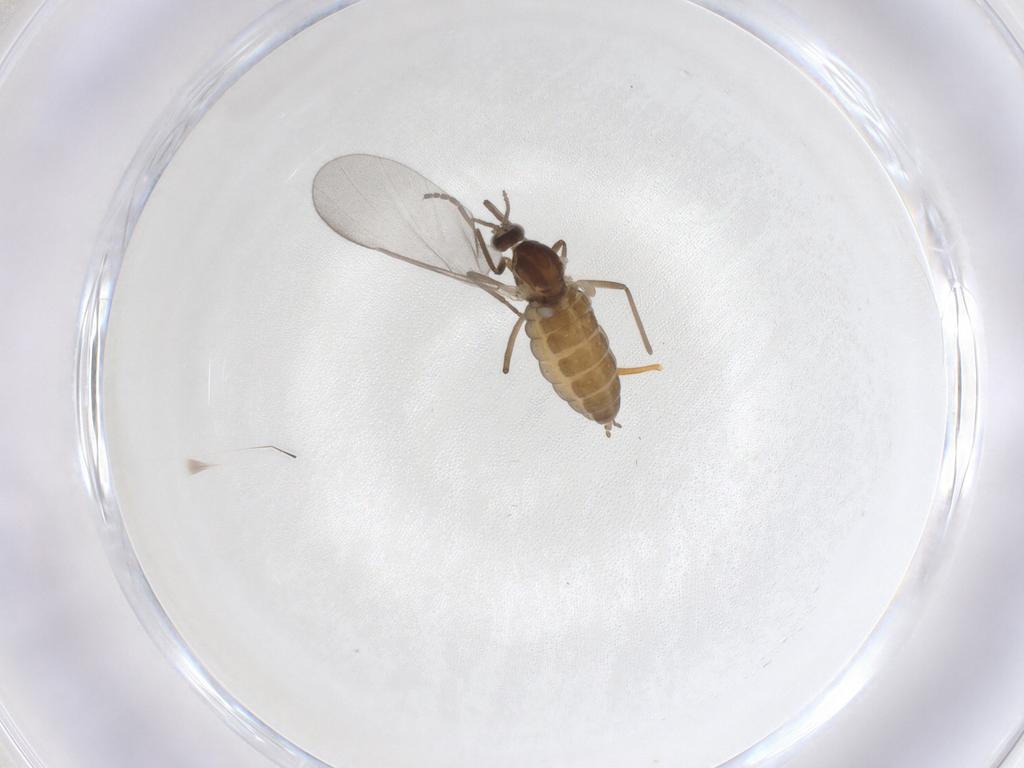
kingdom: Animalia
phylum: Arthropoda
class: Insecta
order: Diptera
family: Cecidomyiidae
